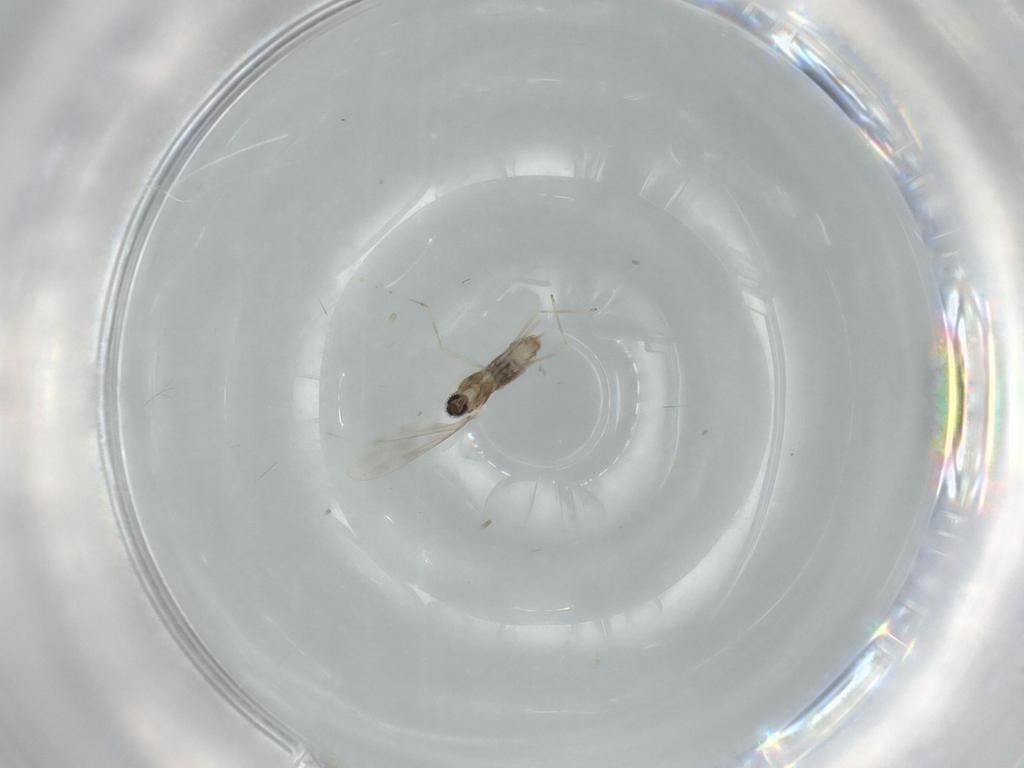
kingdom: Animalia
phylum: Arthropoda
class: Insecta
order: Diptera
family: Cecidomyiidae
